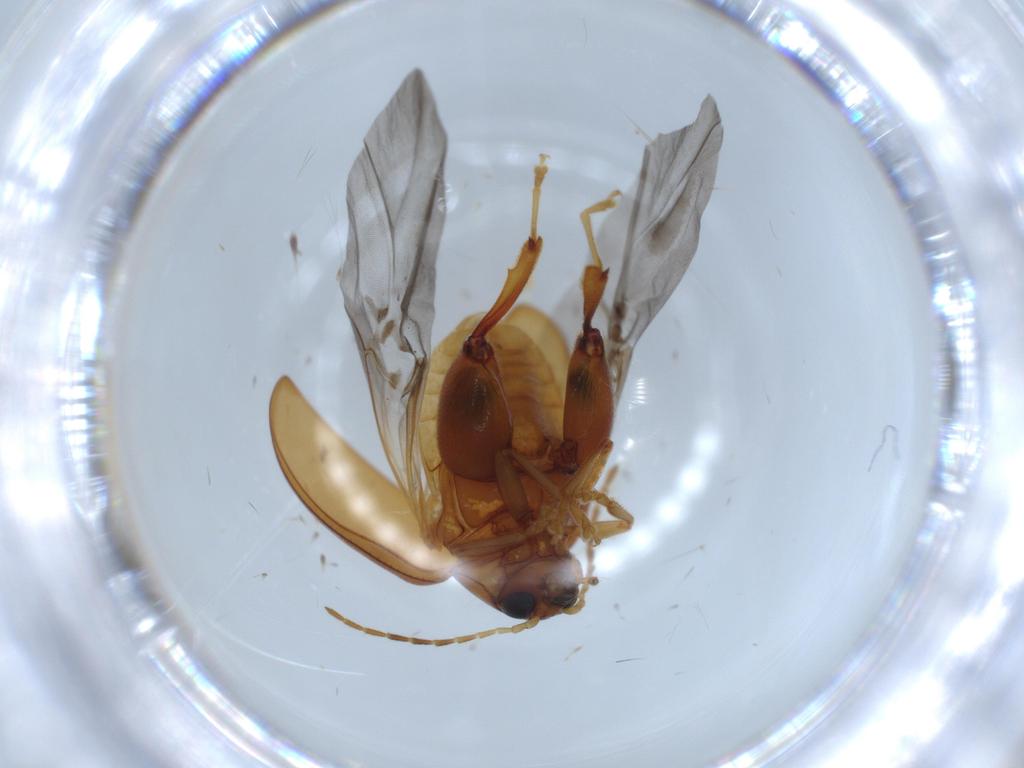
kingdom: Animalia
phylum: Arthropoda
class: Insecta
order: Coleoptera
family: Chrysomelidae
